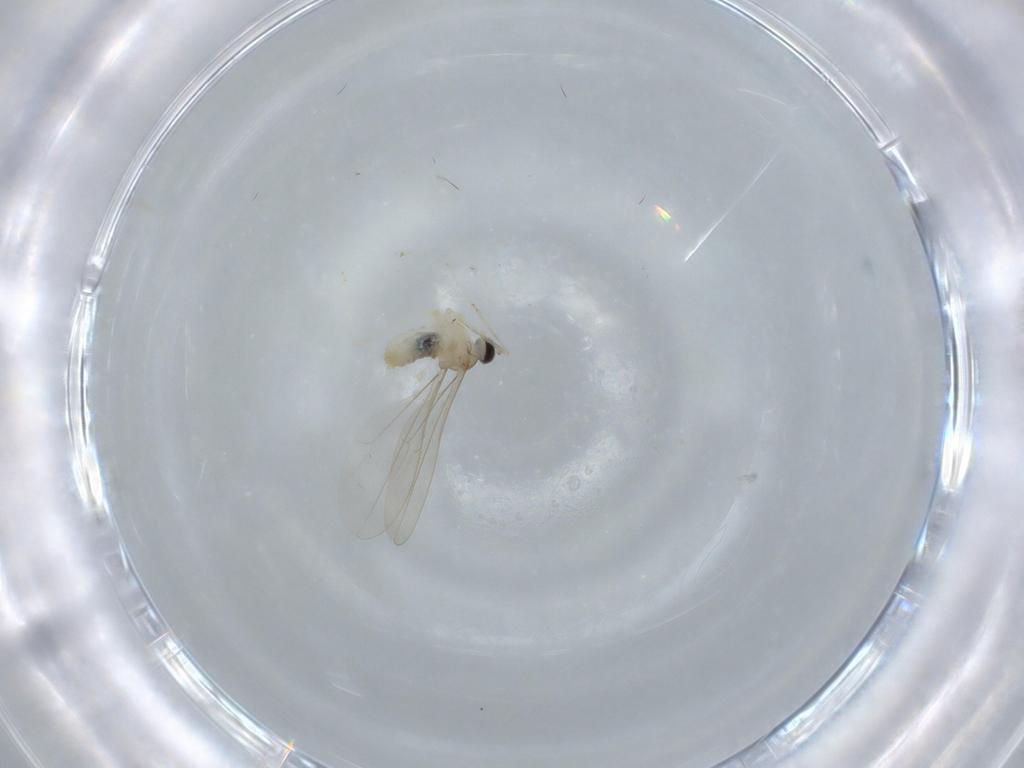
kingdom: Animalia
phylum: Arthropoda
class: Insecta
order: Diptera
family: Cecidomyiidae
